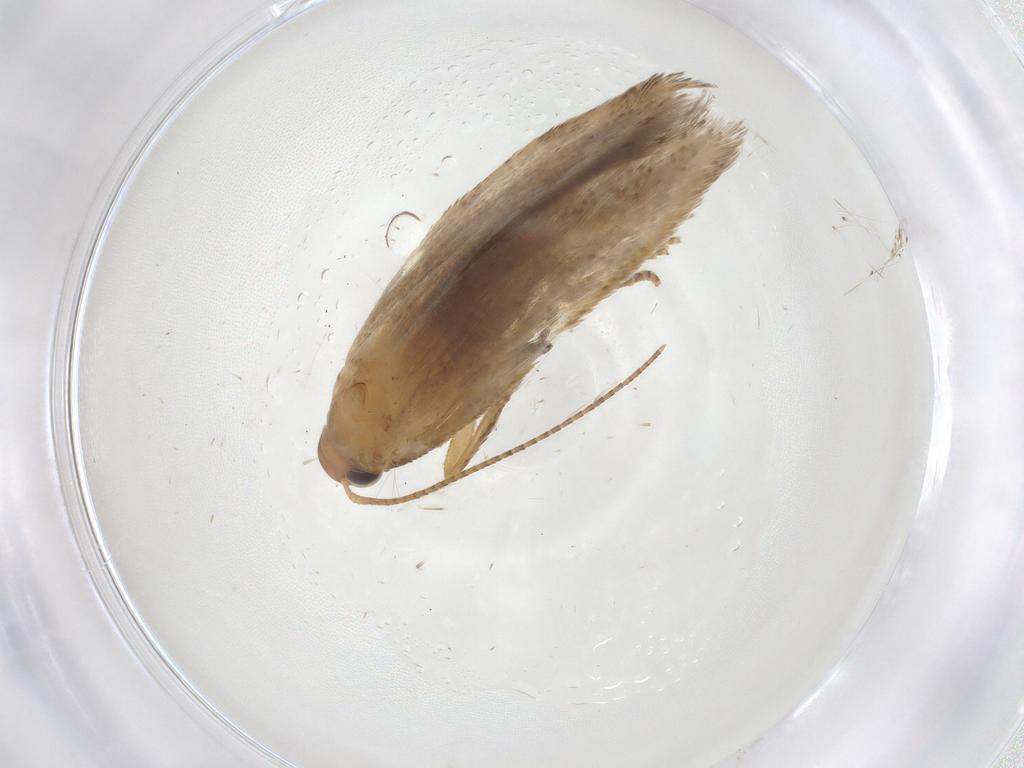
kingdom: Animalia
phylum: Arthropoda
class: Insecta
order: Lepidoptera
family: Gelechiidae
